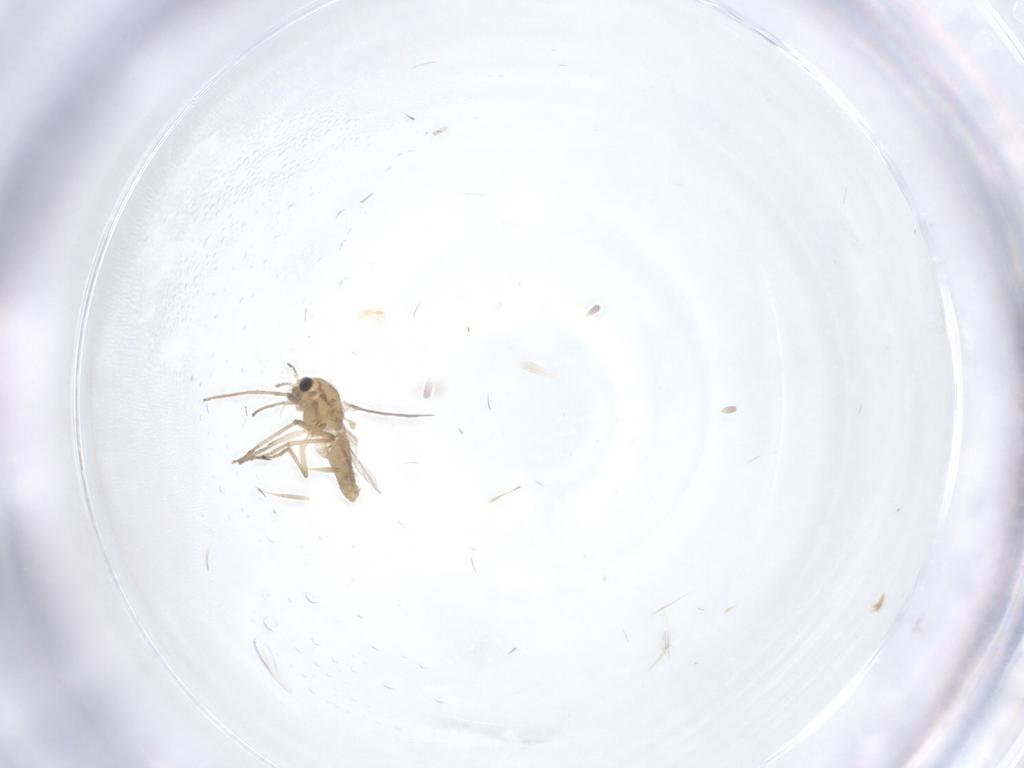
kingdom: Animalia
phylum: Arthropoda
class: Insecta
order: Diptera
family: Chironomidae
